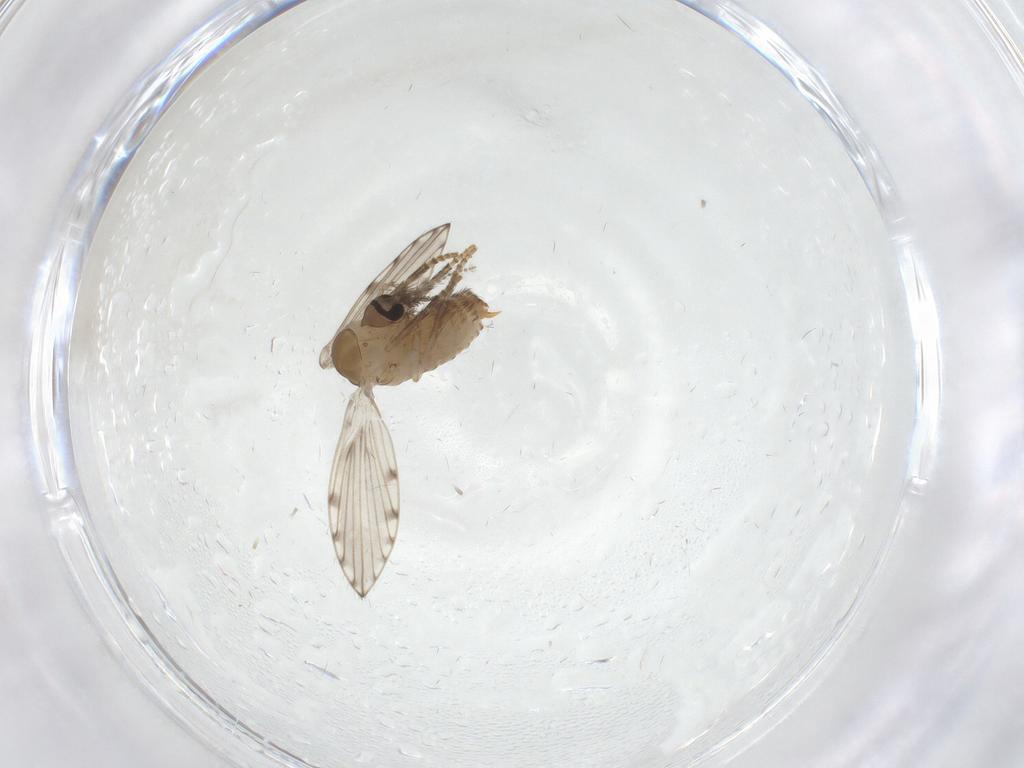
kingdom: Animalia
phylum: Arthropoda
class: Insecta
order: Diptera
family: Psychodidae
